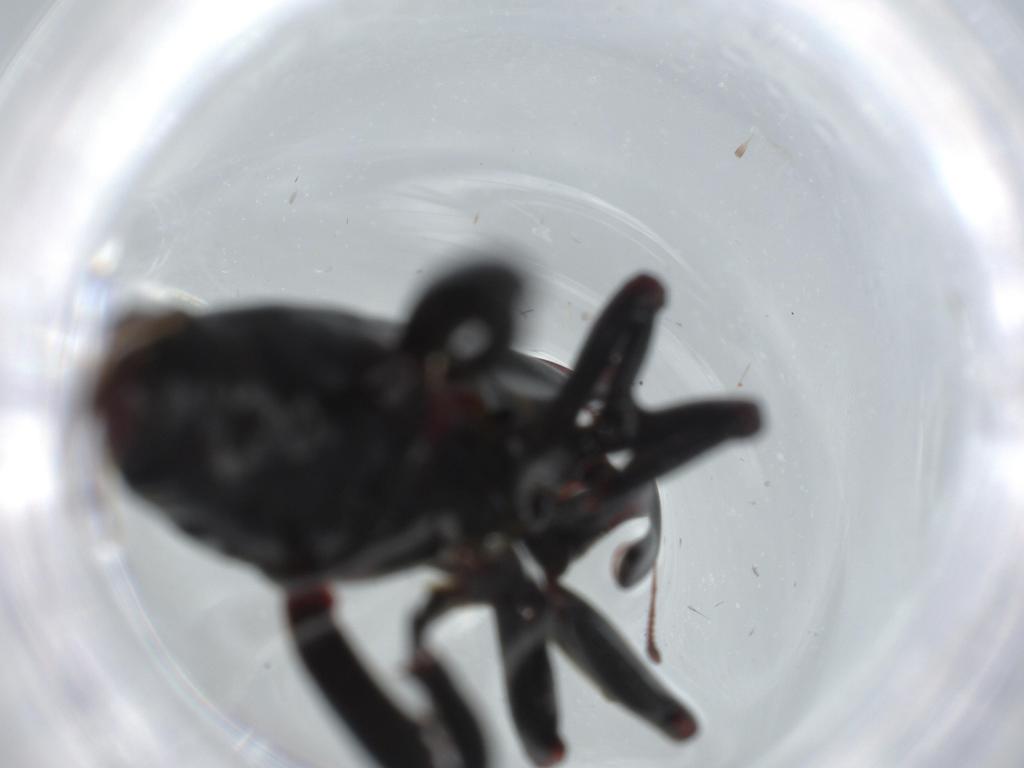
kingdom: Animalia
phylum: Arthropoda
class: Insecta
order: Coleoptera
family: Curculionidae
